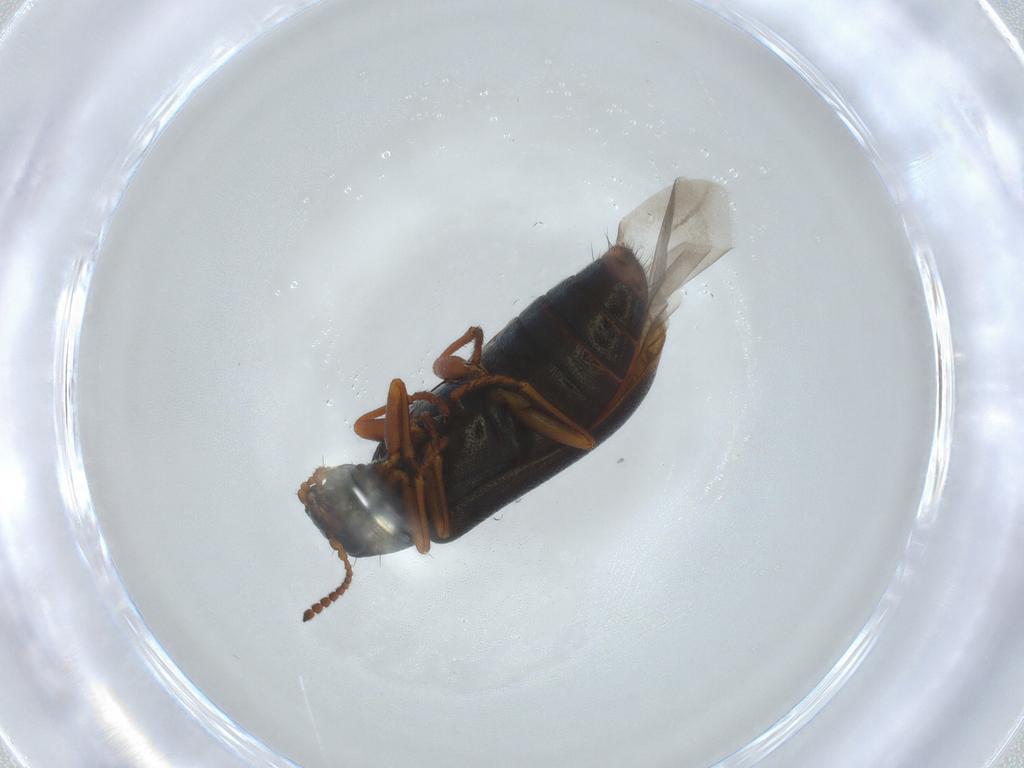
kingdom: Animalia
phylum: Arthropoda
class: Insecta
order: Coleoptera
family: Melyridae
